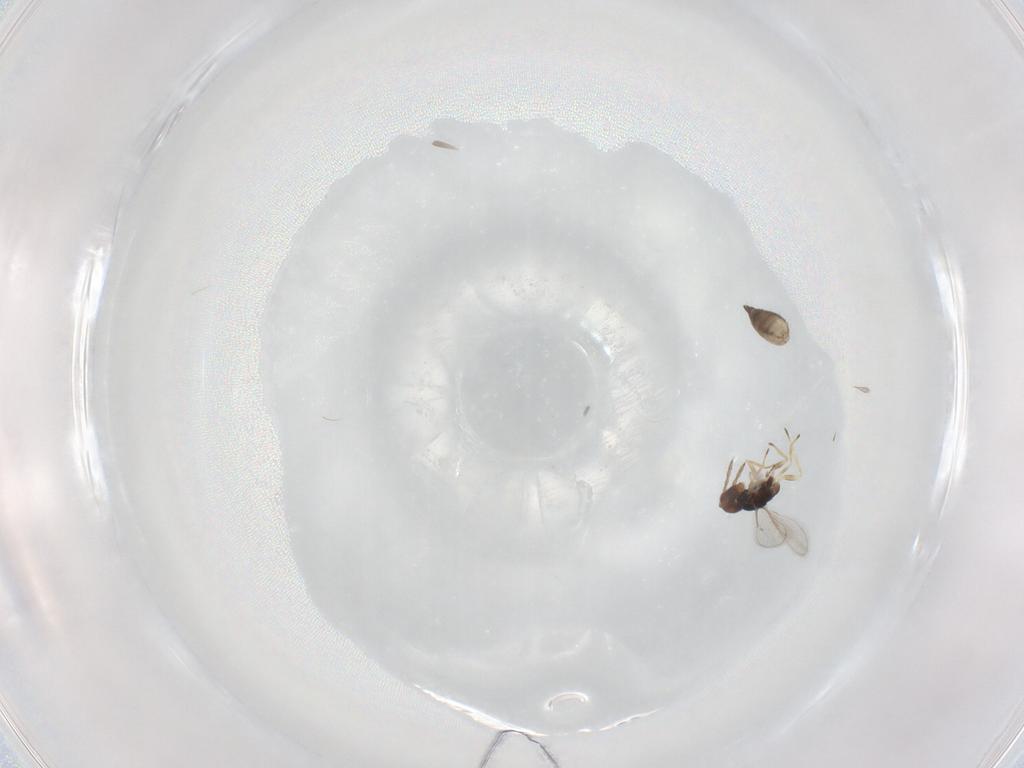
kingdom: Animalia
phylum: Arthropoda
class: Insecta
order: Hymenoptera
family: Eulophidae
